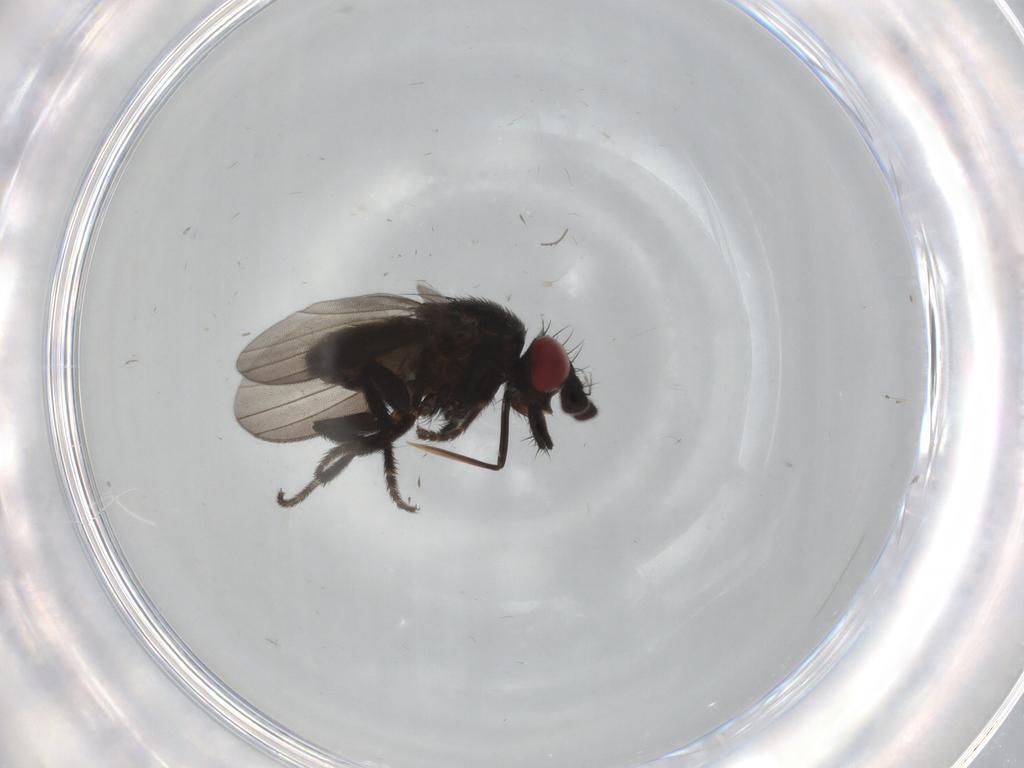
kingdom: Animalia
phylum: Arthropoda
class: Insecta
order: Diptera
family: Milichiidae
